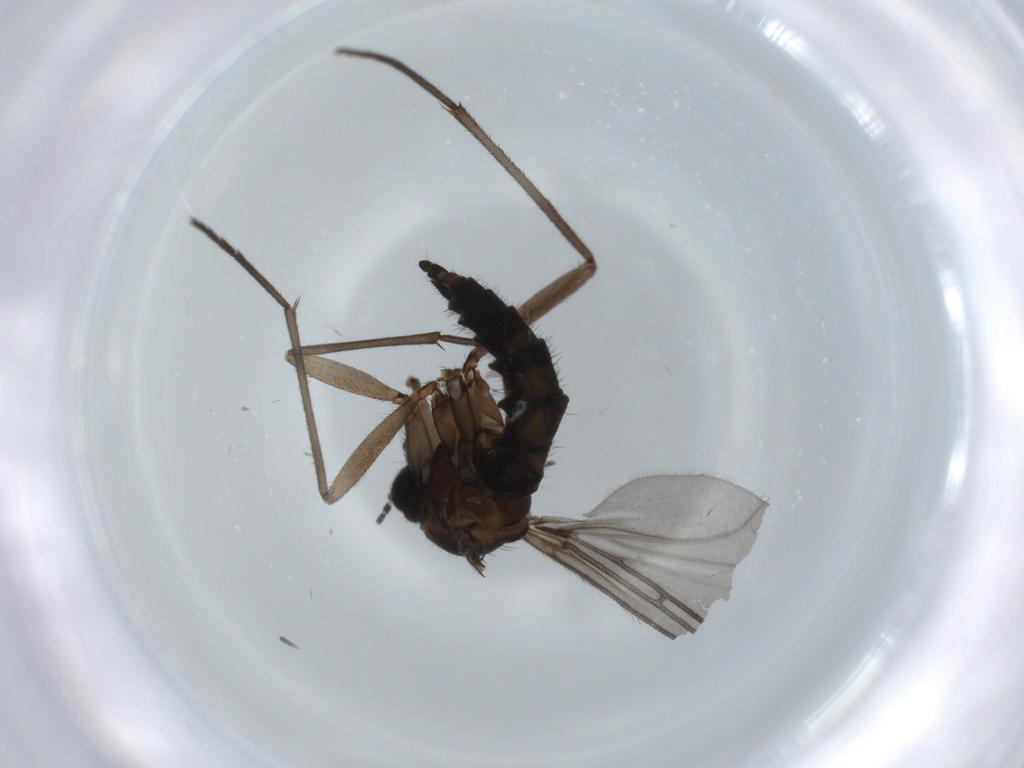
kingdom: Animalia
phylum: Arthropoda
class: Insecta
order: Diptera
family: Sciaridae
